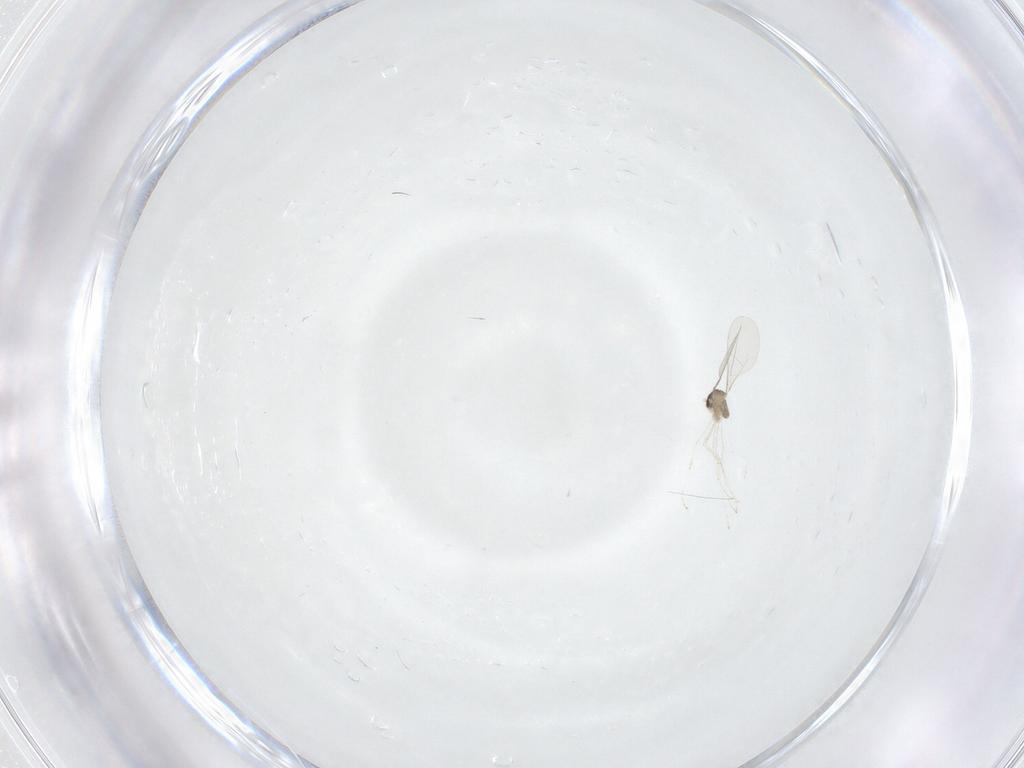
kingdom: Animalia
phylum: Arthropoda
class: Insecta
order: Diptera
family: Cecidomyiidae
